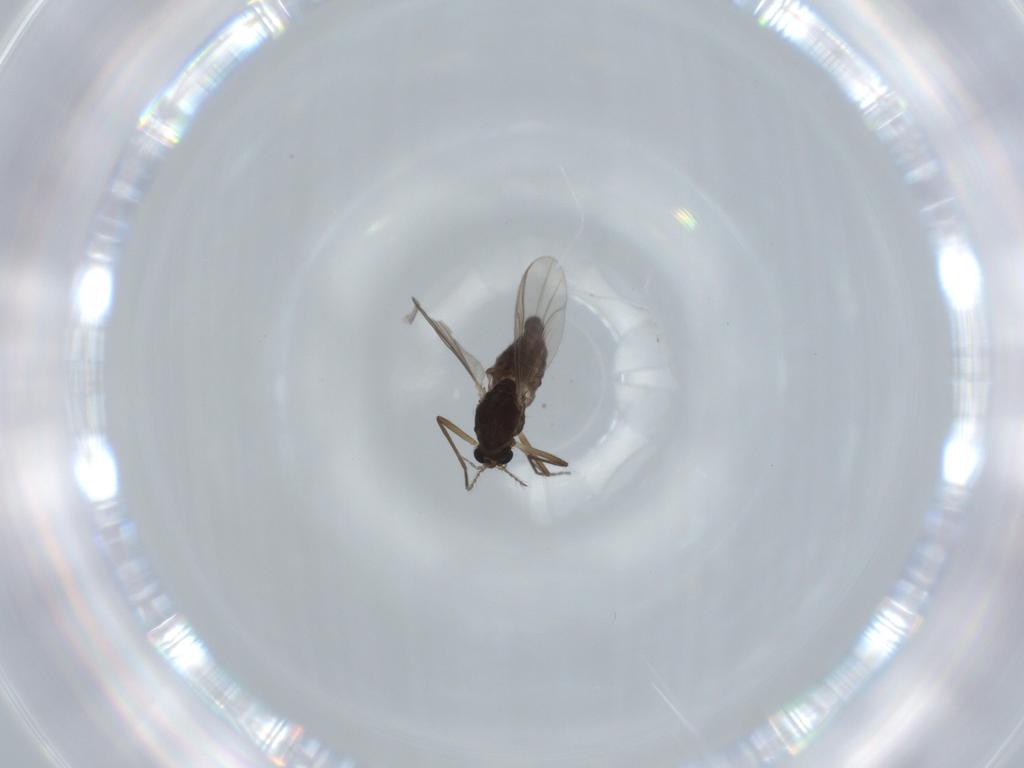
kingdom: Animalia
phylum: Arthropoda
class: Insecta
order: Diptera
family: Chironomidae
